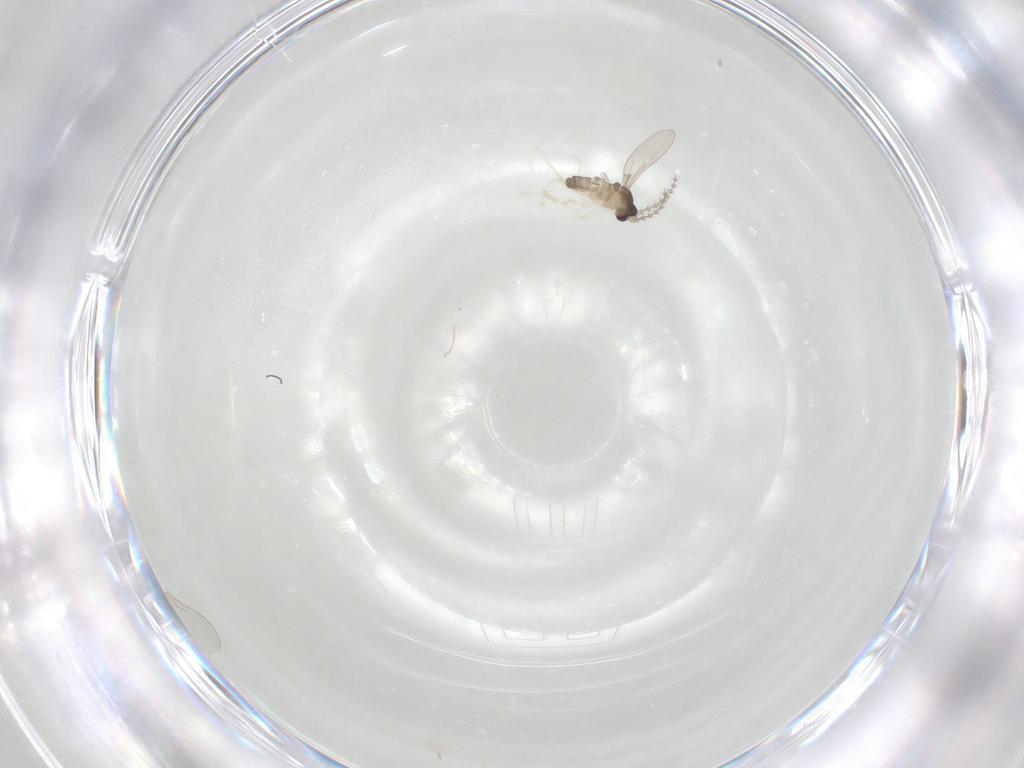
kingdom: Animalia
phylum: Arthropoda
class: Insecta
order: Diptera
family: Cecidomyiidae
